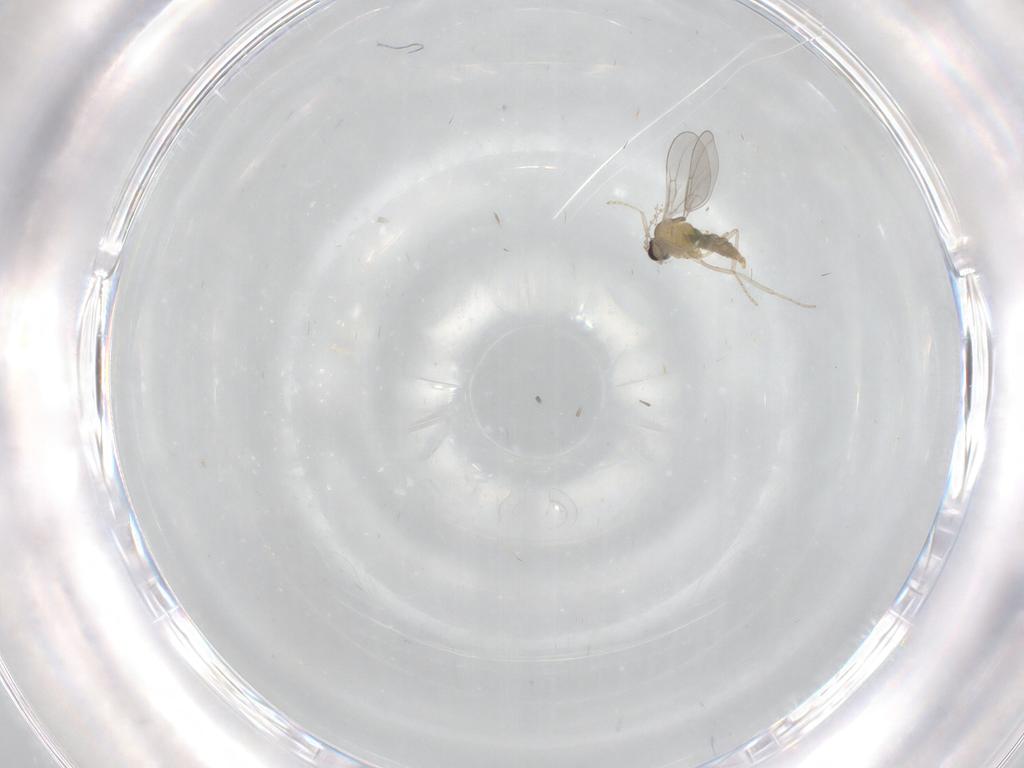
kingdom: Animalia
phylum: Arthropoda
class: Insecta
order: Diptera
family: Cecidomyiidae
